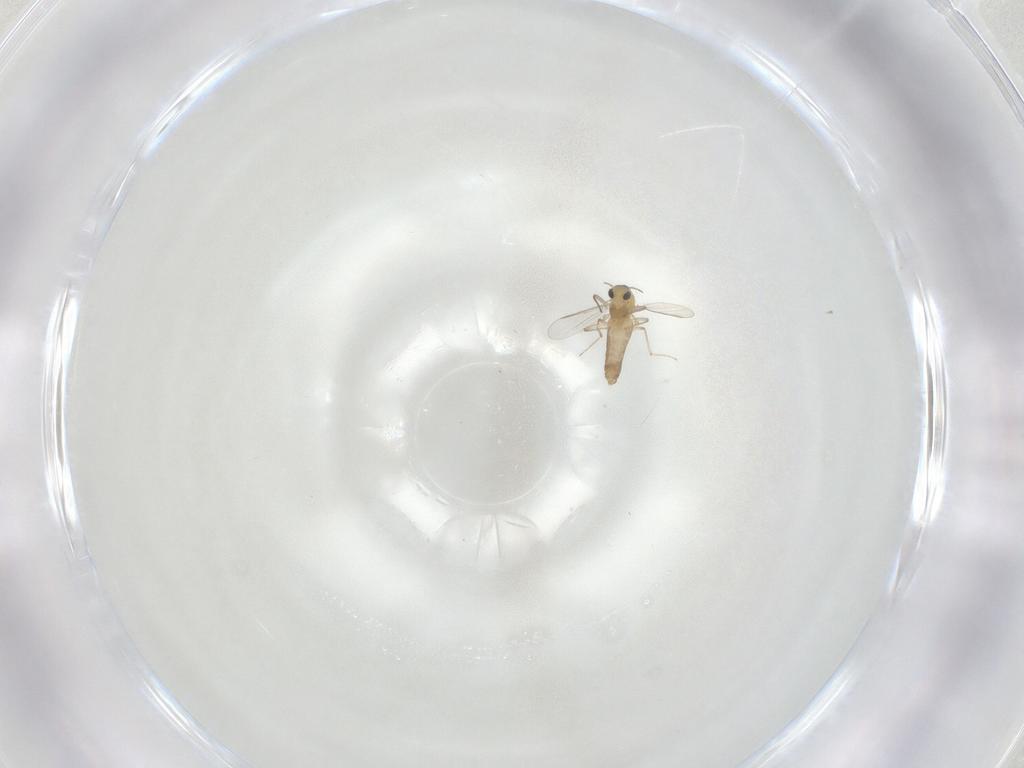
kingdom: Animalia
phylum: Arthropoda
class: Insecta
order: Diptera
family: Chironomidae
